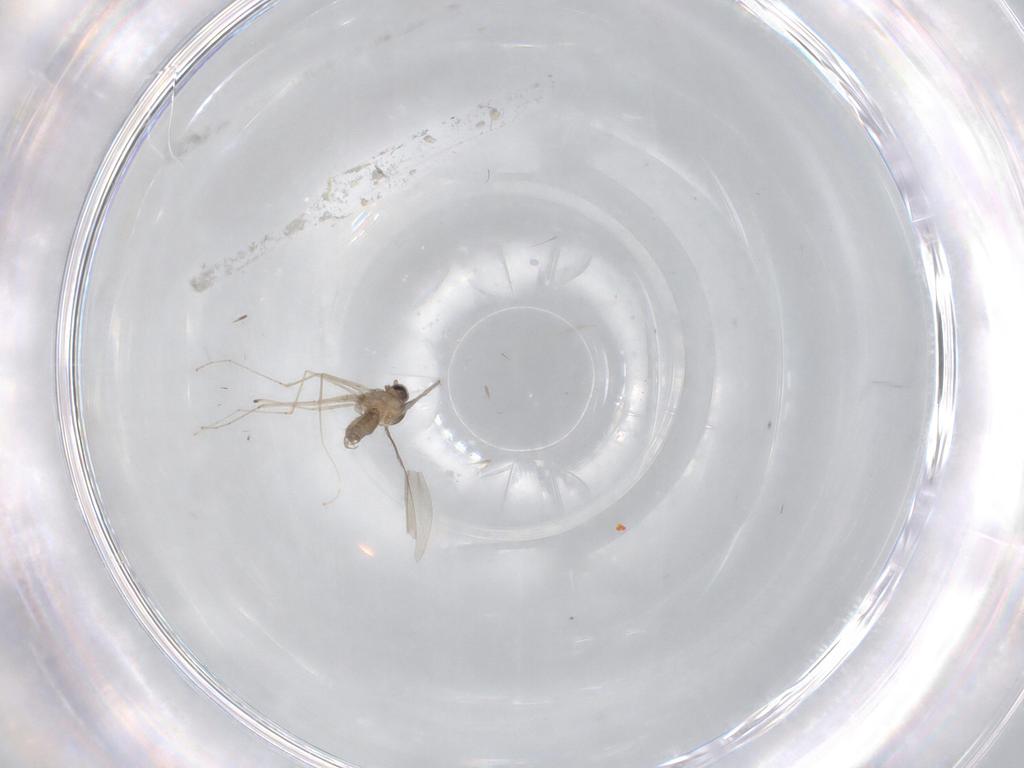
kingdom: Animalia
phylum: Arthropoda
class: Insecta
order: Diptera
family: Cecidomyiidae
